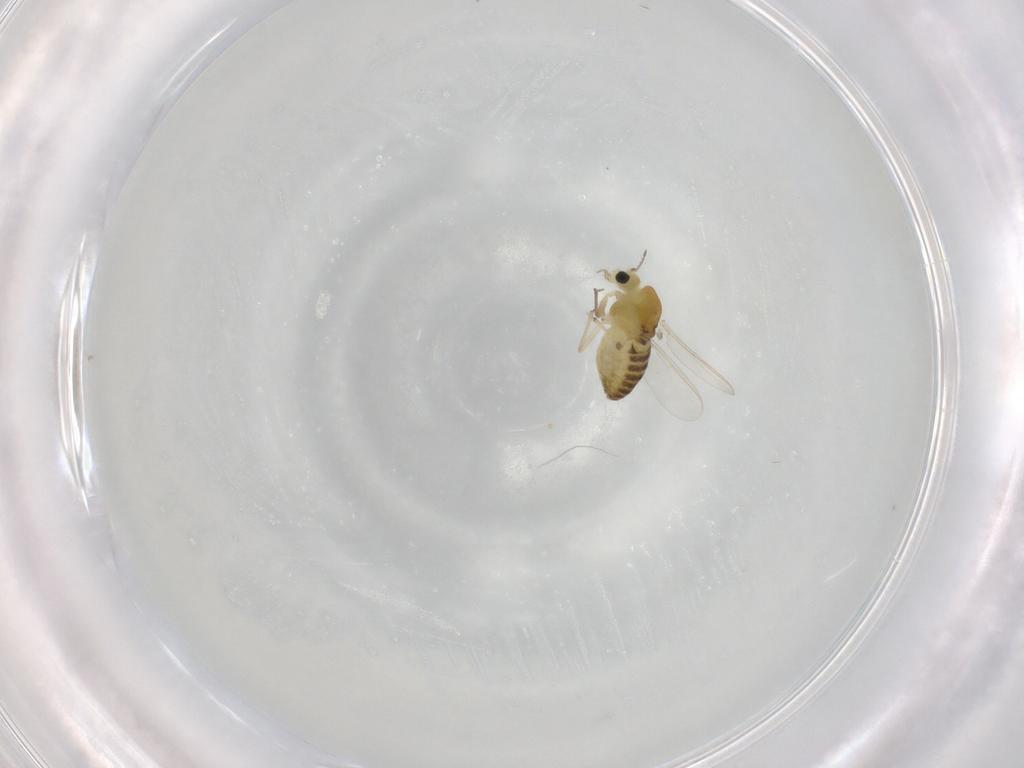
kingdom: Animalia
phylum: Arthropoda
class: Insecta
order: Diptera
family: Chironomidae
